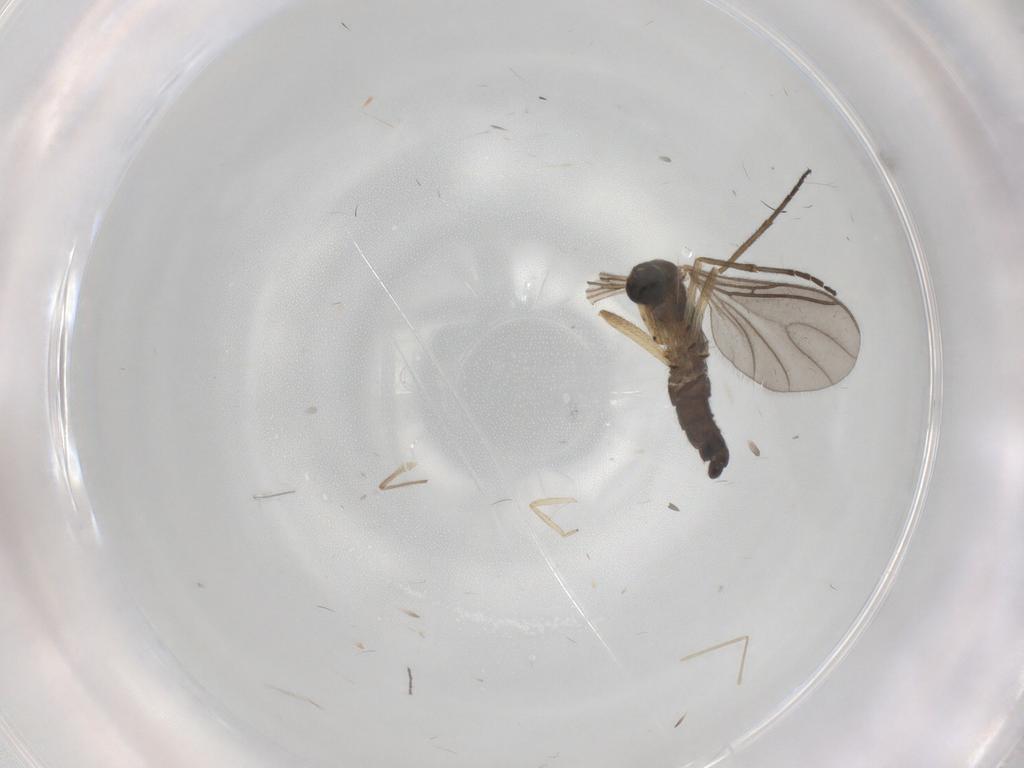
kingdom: Animalia
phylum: Arthropoda
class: Insecta
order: Diptera
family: Sciaridae
